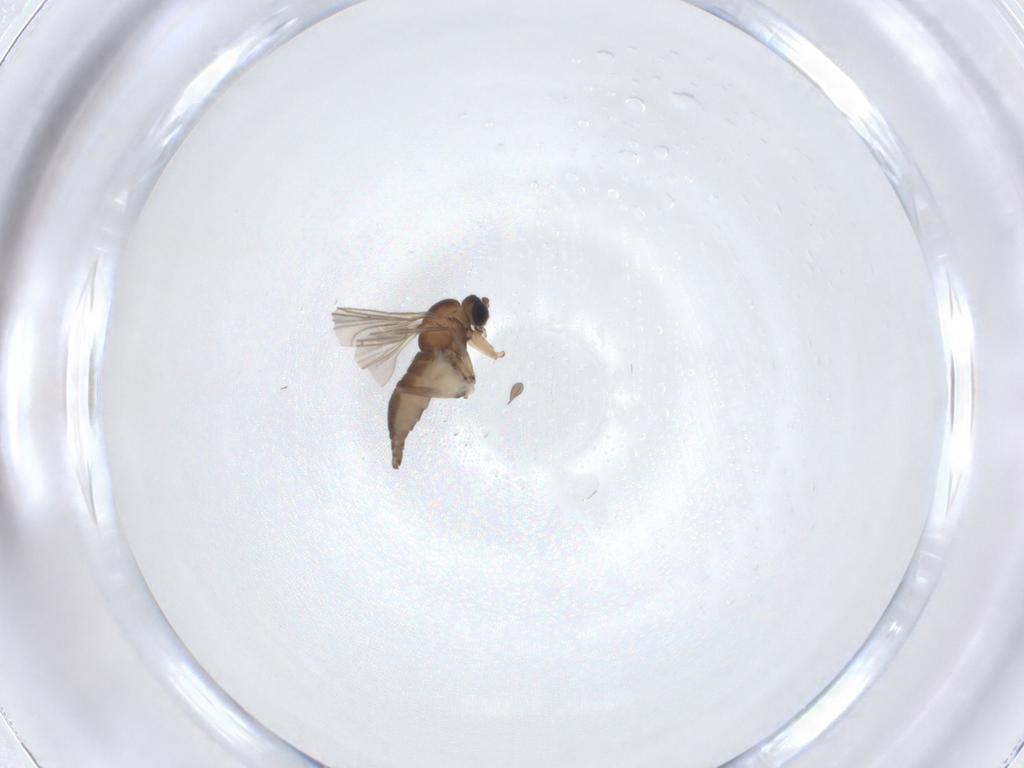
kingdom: Animalia
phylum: Arthropoda
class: Insecta
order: Diptera
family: Sciaridae
